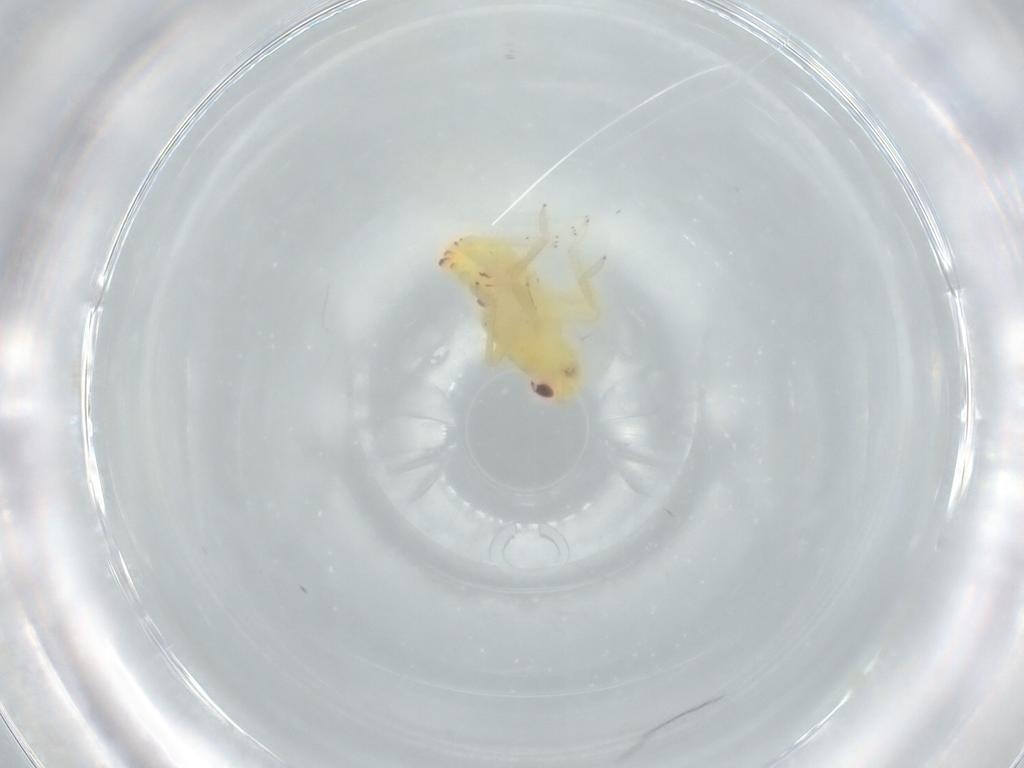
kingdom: Animalia
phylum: Arthropoda
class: Insecta
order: Hemiptera
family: Tropiduchidae
